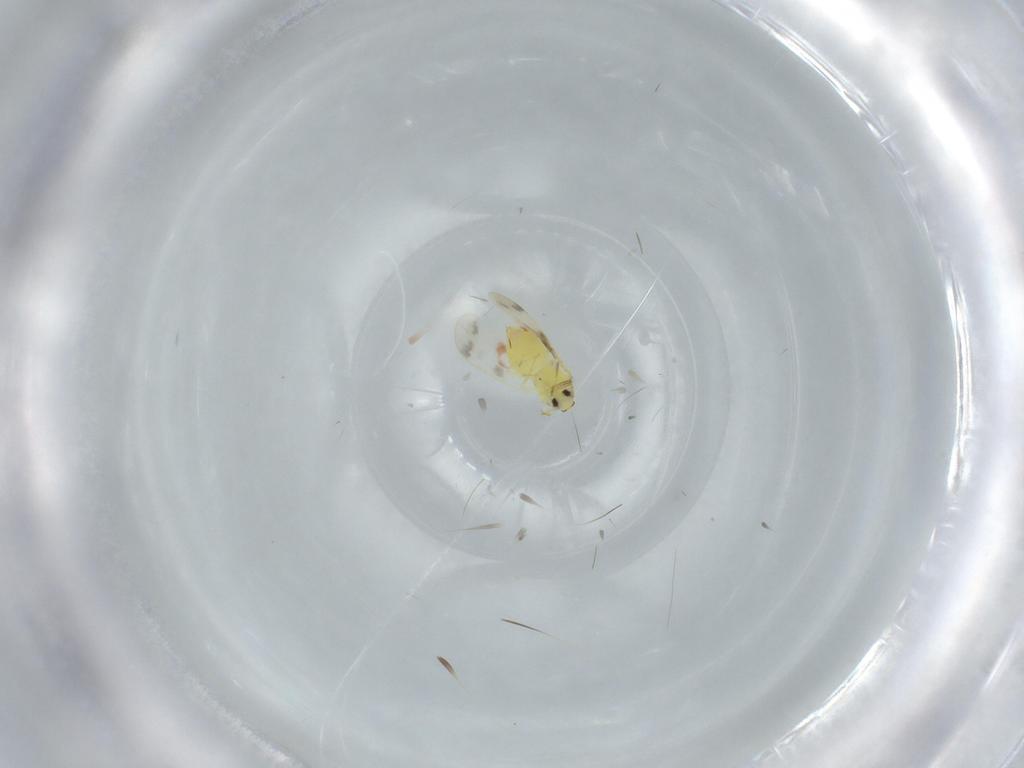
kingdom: Animalia
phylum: Arthropoda
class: Insecta
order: Hemiptera
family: Aleyrodidae
